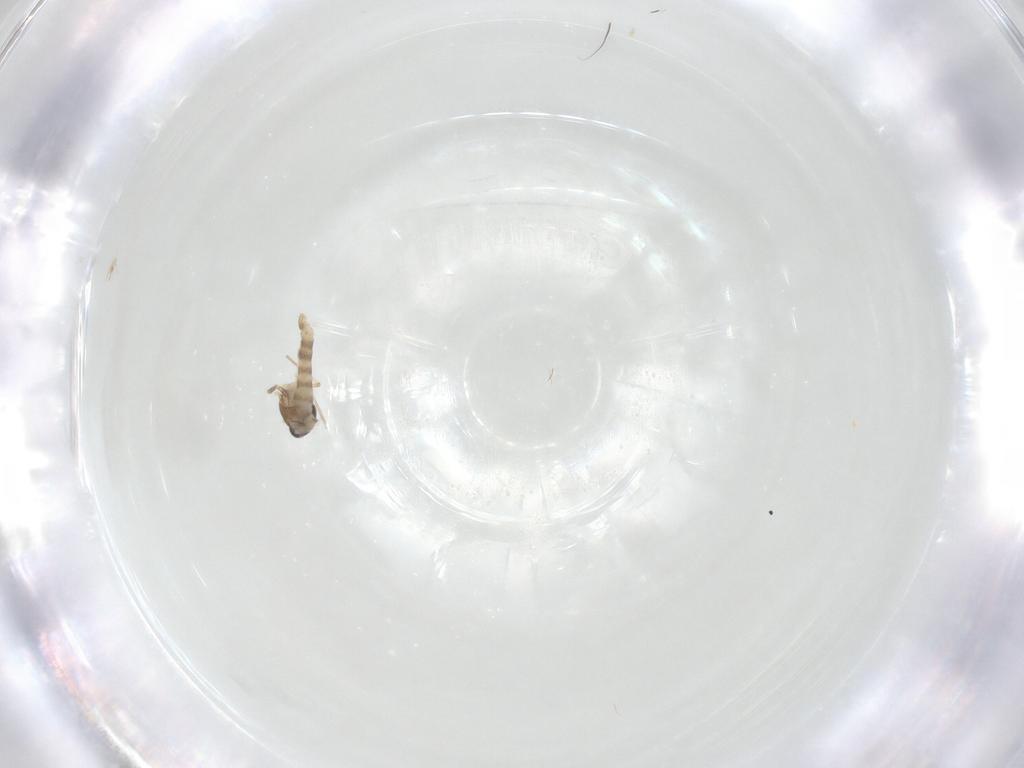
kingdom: Animalia
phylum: Arthropoda
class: Insecta
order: Diptera
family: Chironomidae
